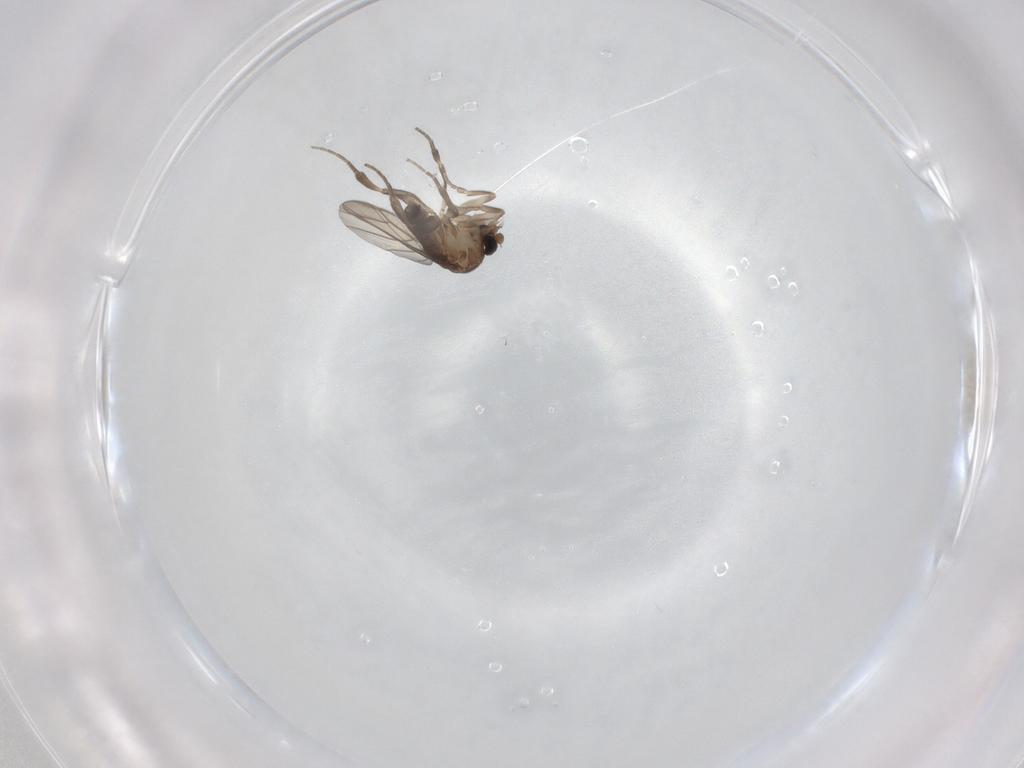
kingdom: Animalia
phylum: Arthropoda
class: Insecta
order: Diptera
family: Phoridae
